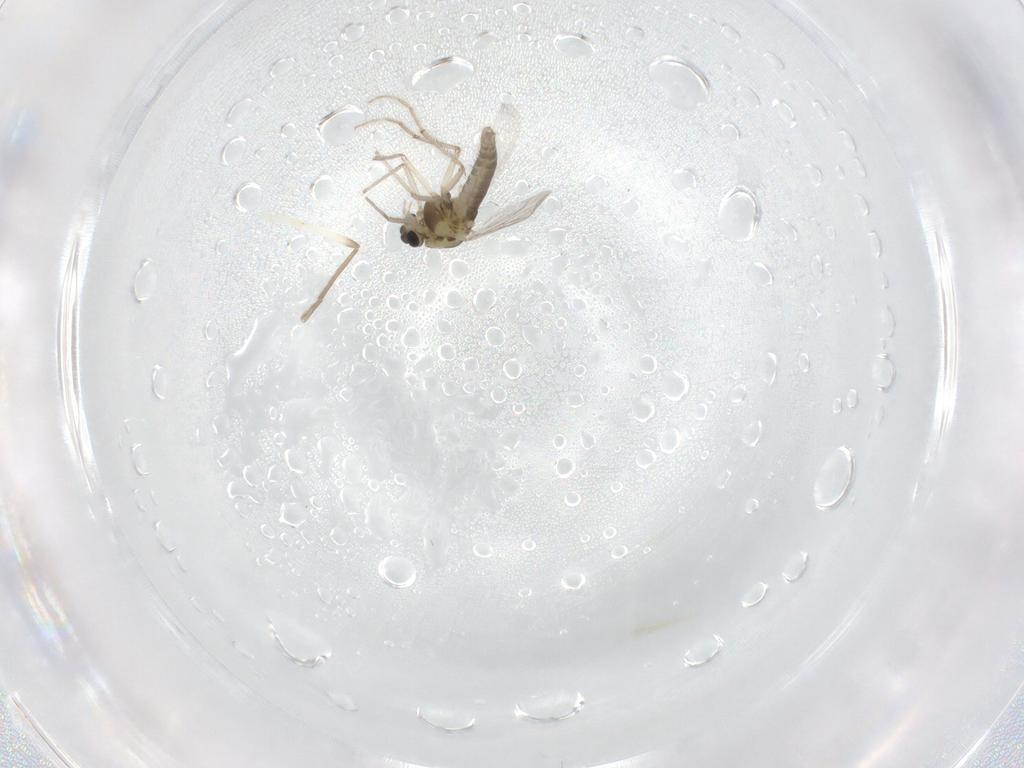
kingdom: Animalia
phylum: Arthropoda
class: Insecta
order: Diptera
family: Chironomidae
